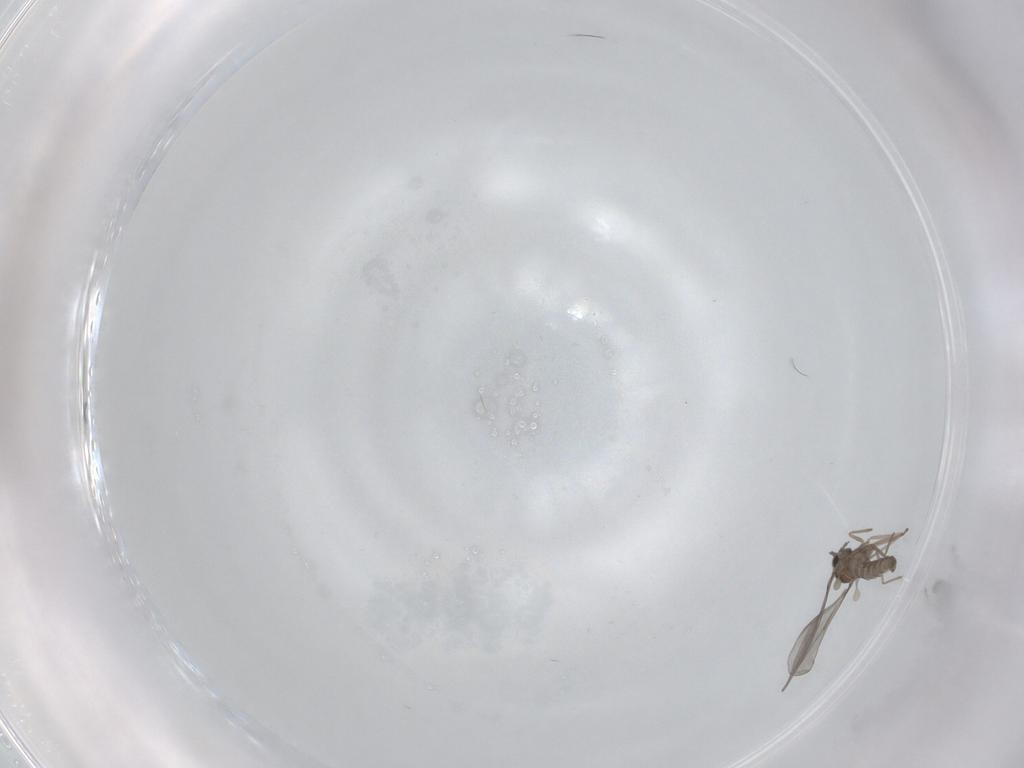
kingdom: Animalia
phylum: Arthropoda
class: Insecta
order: Diptera
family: Cecidomyiidae
